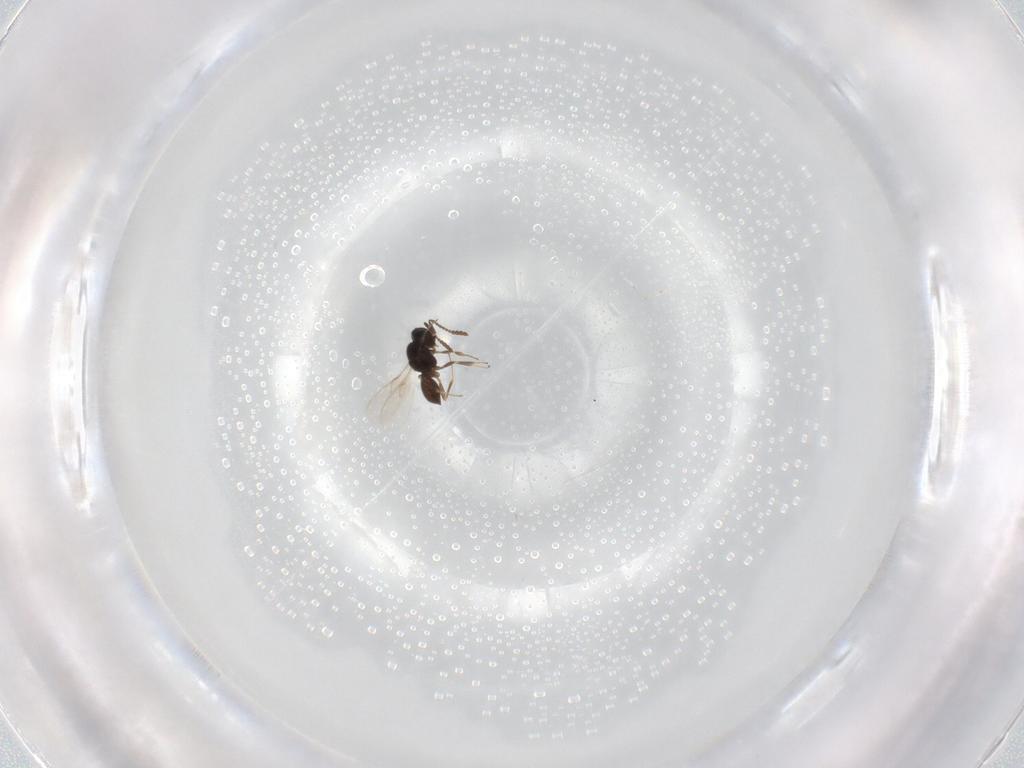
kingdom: Animalia
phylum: Arthropoda
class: Insecta
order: Hymenoptera
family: Scelionidae
